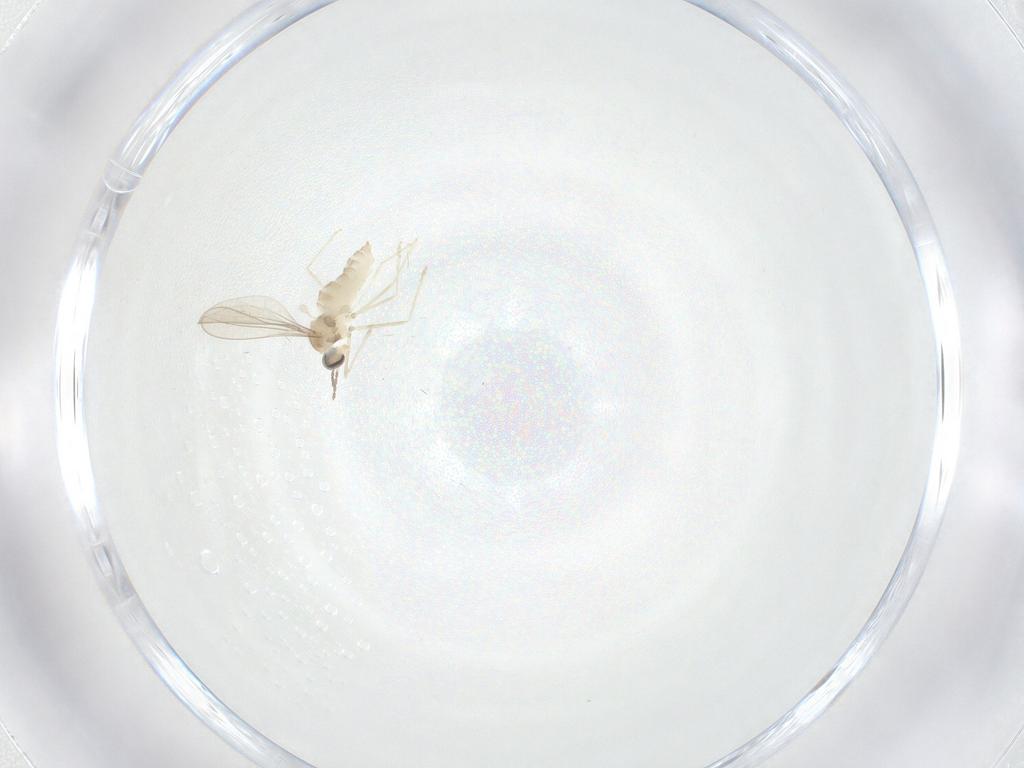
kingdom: Animalia
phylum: Arthropoda
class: Insecta
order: Diptera
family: Cecidomyiidae
